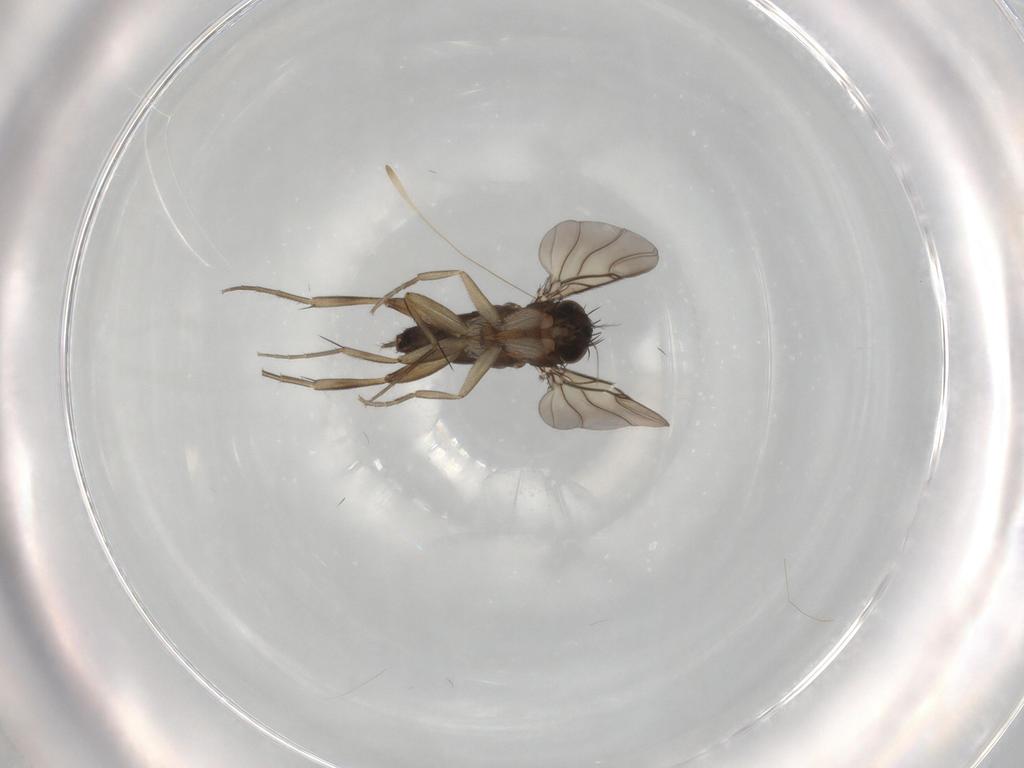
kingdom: Animalia
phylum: Arthropoda
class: Insecta
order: Diptera
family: Phoridae
